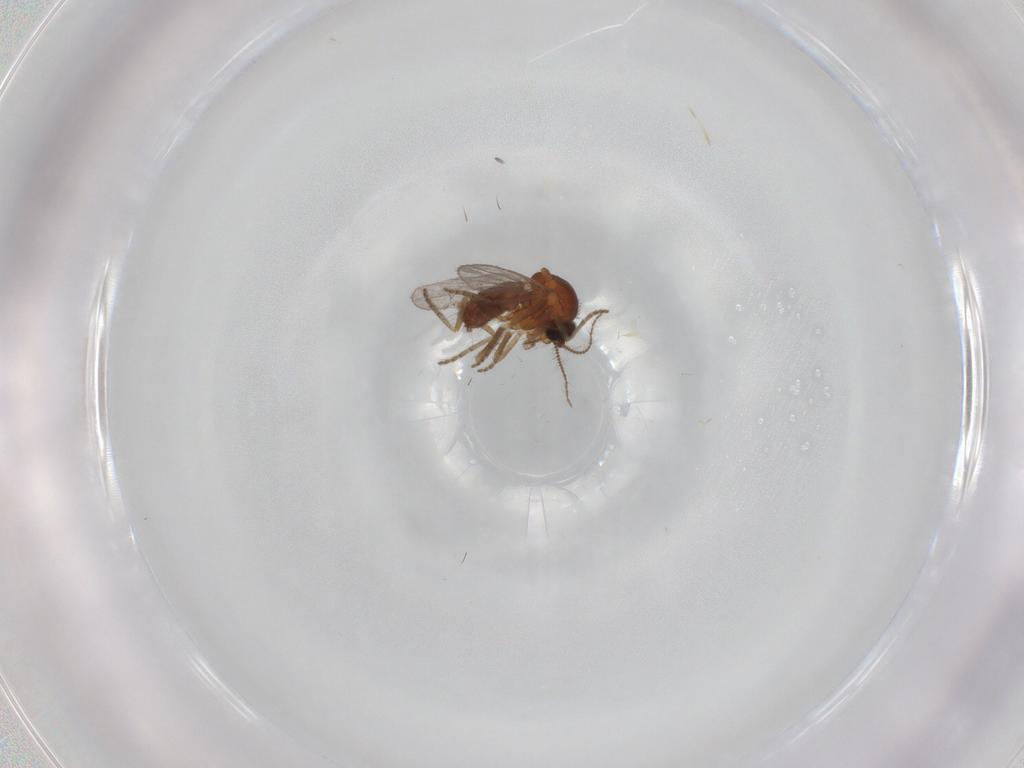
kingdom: Animalia
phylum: Arthropoda
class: Insecta
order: Diptera
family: Ceratopogonidae
